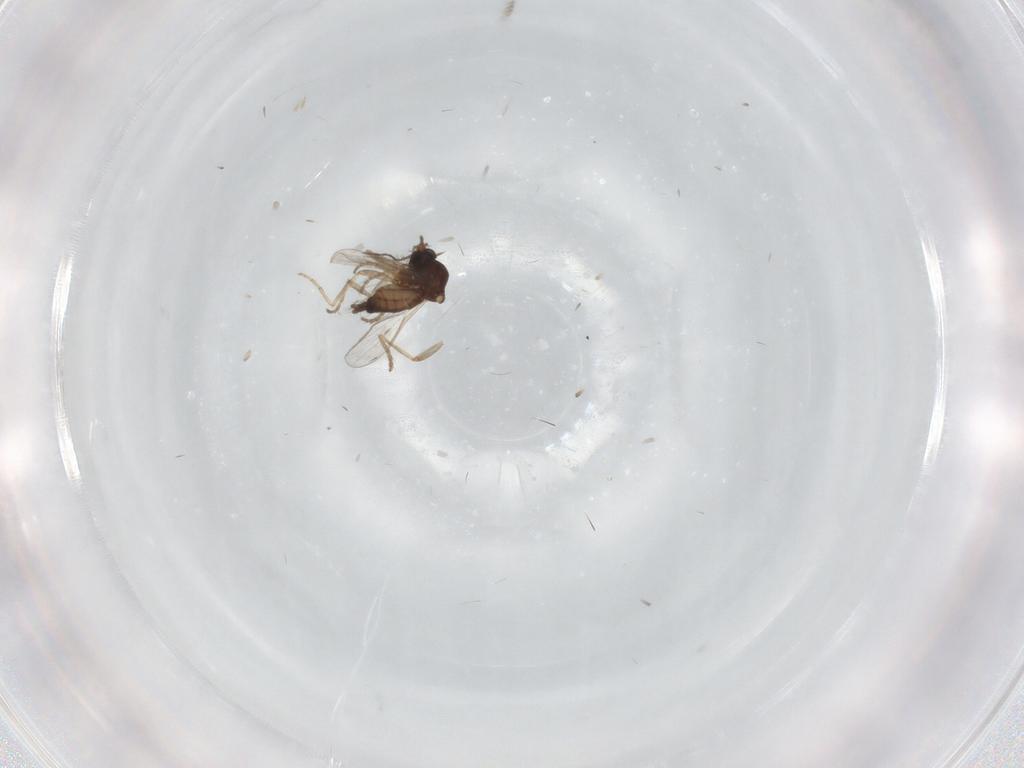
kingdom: Animalia
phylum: Arthropoda
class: Insecta
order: Diptera
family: Ceratopogonidae
